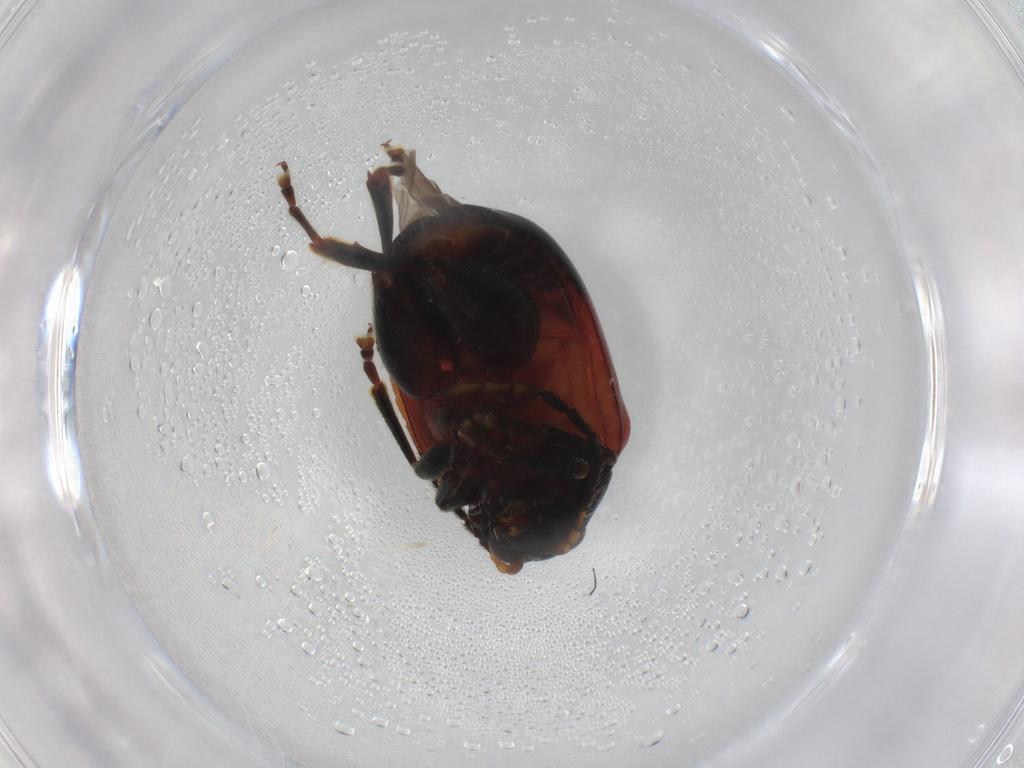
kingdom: Animalia
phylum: Arthropoda
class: Insecta
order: Coleoptera
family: Chrysomelidae
